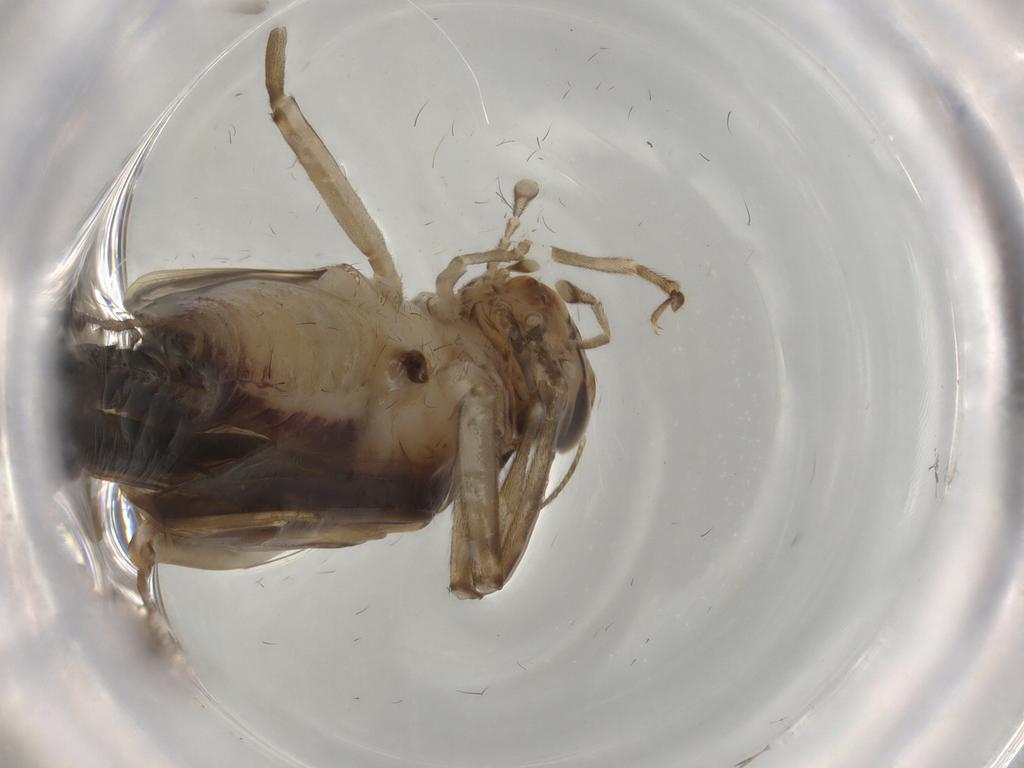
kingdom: Animalia
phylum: Arthropoda
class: Insecta
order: Orthoptera
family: Trigonidiidae
